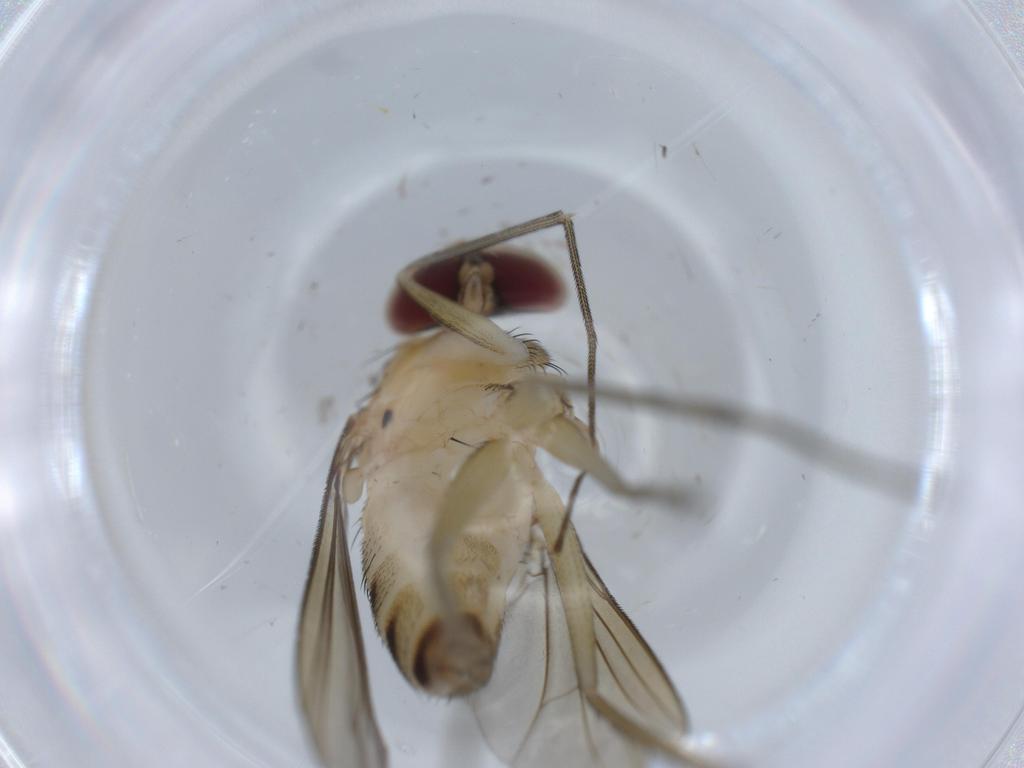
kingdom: Animalia
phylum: Arthropoda
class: Insecta
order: Diptera
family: Dolichopodidae
